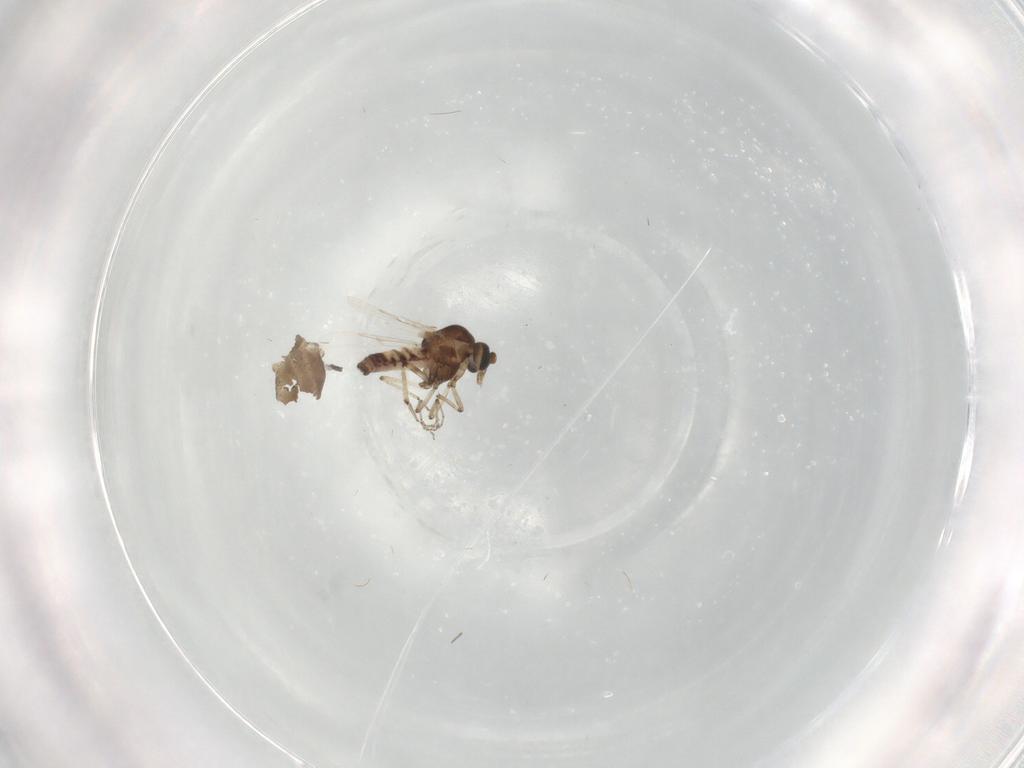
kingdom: Animalia
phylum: Arthropoda
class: Insecta
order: Diptera
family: Ceratopogonidae
